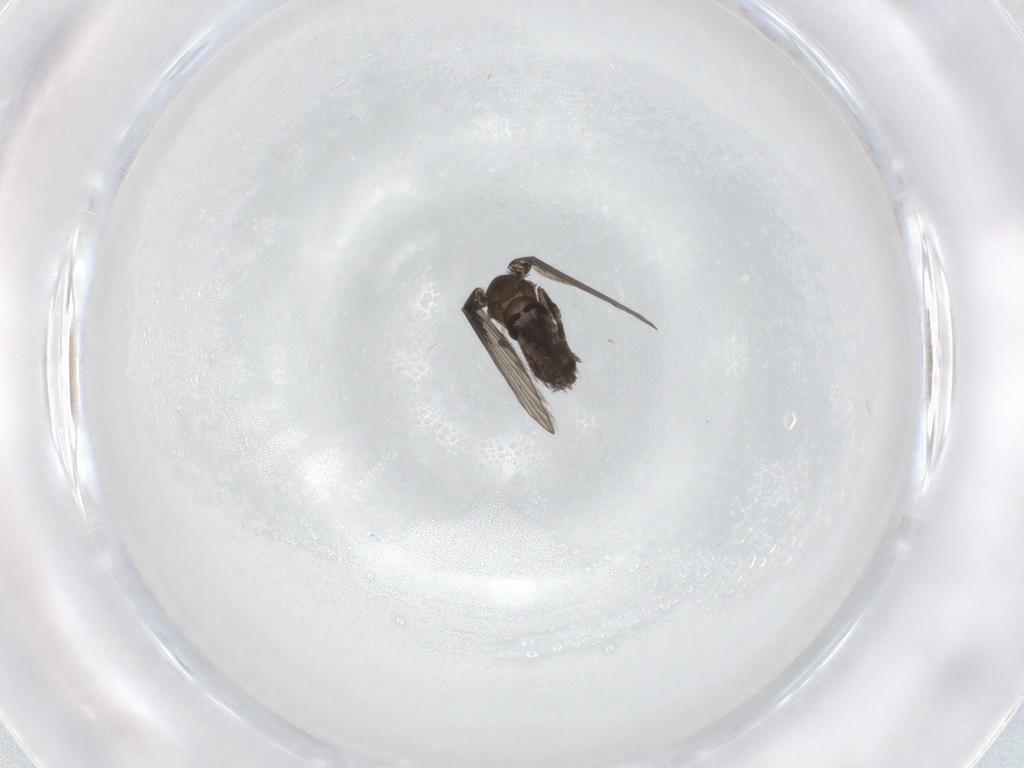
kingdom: Animalia
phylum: Arthropoda
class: Insecta
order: Diptera
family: Psychodidae
